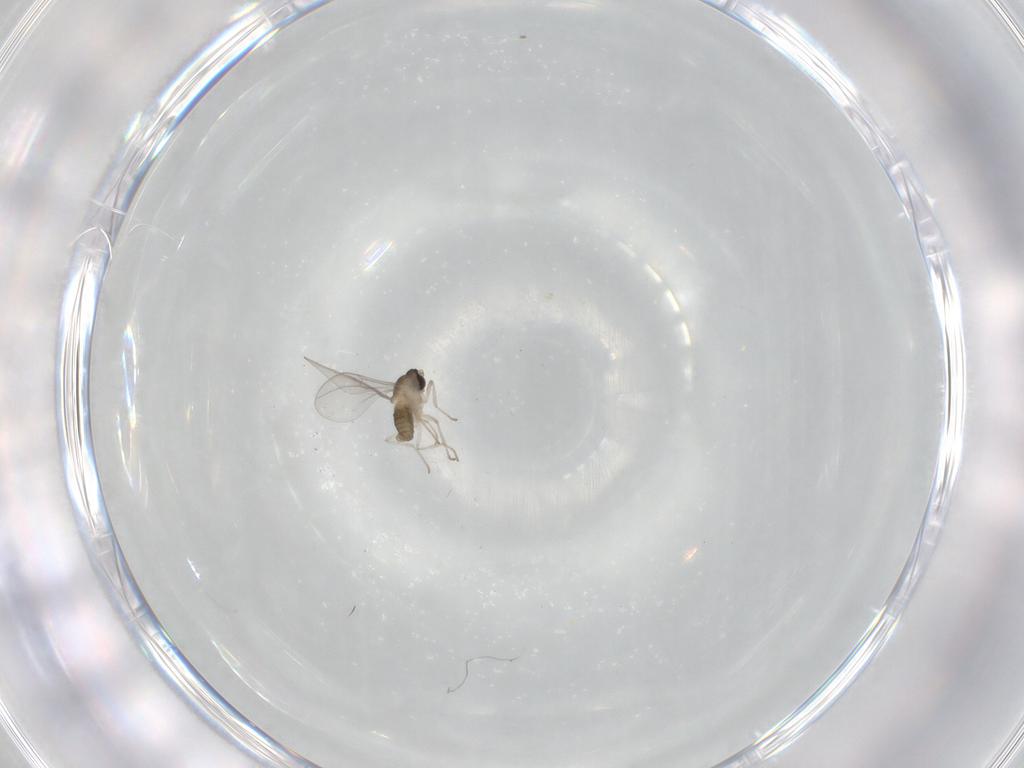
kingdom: Animalia
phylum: Arthropoda
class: Insecta
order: Diptera
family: Cecidomyiidae
